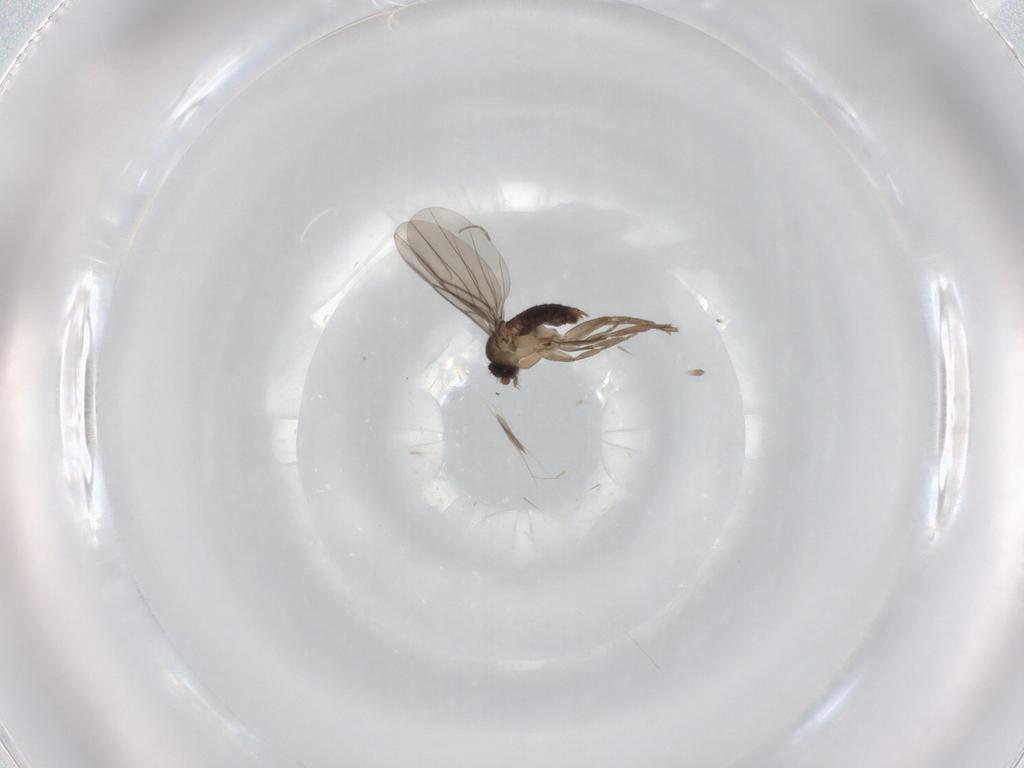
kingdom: Animalia
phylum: Arthropoda
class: Insecta
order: Diptera
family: Phoridae
